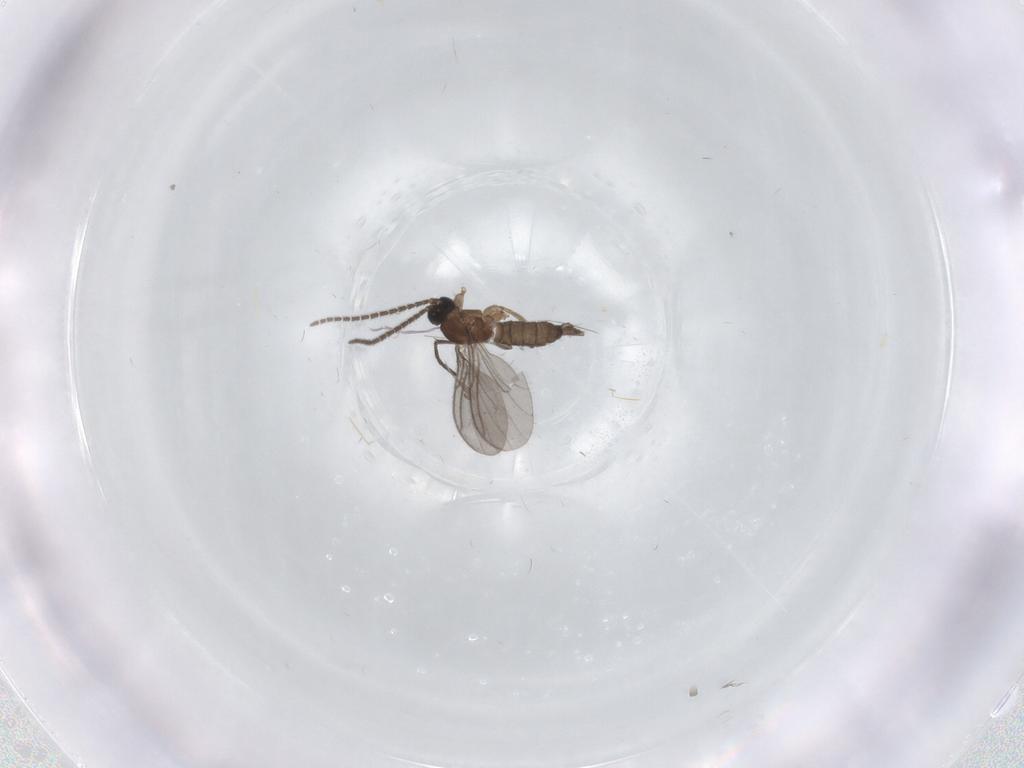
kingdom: Animalia
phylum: Arthropoda
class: Insecta
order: Diptera
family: Sciaridae
